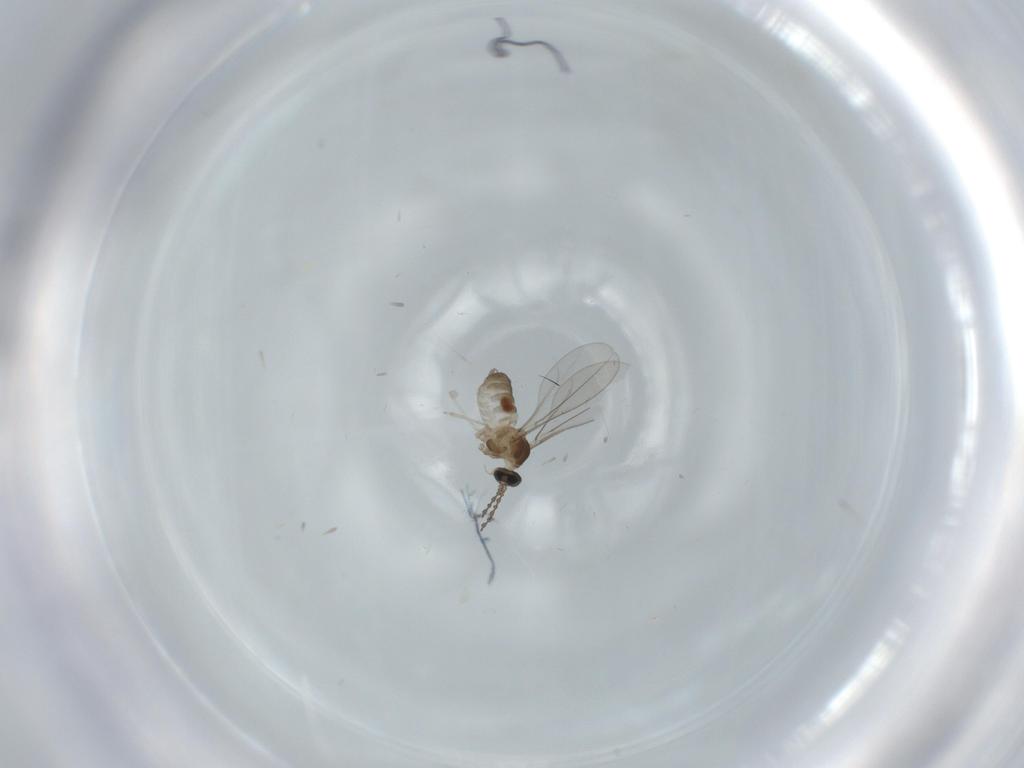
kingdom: Animalia
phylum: Arthropoda
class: Insecta
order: Diptera
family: Cecidomyiidae
